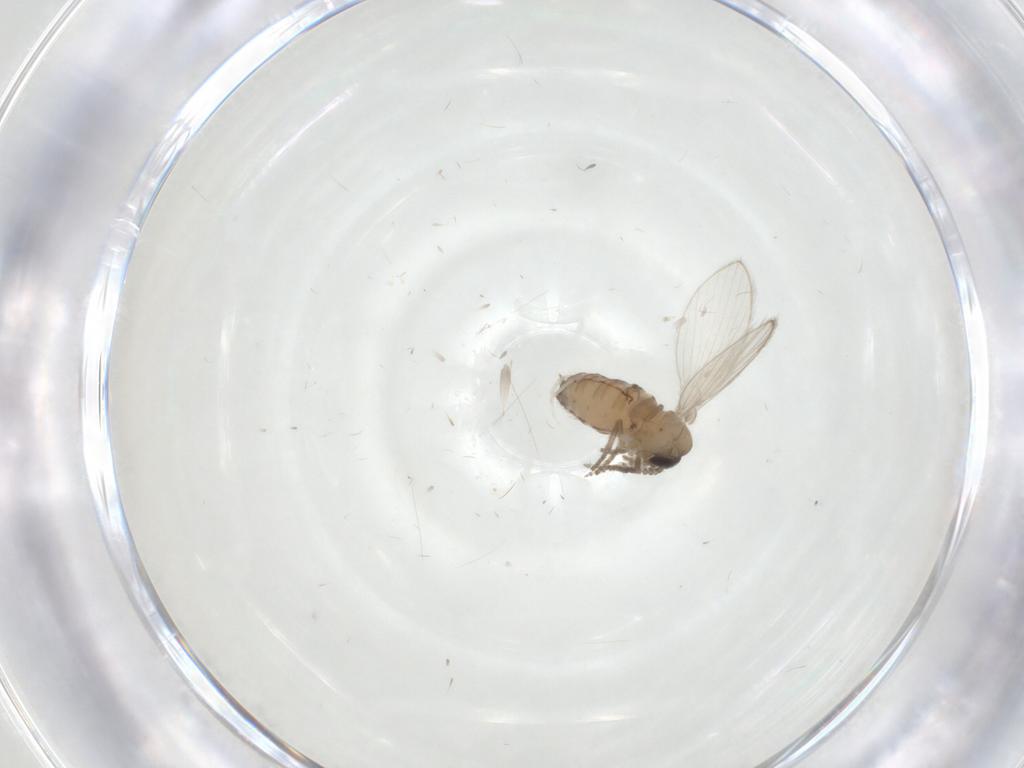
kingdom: Animalia
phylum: Arthropoda
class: Insecta
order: Diptera
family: Psychodidae
